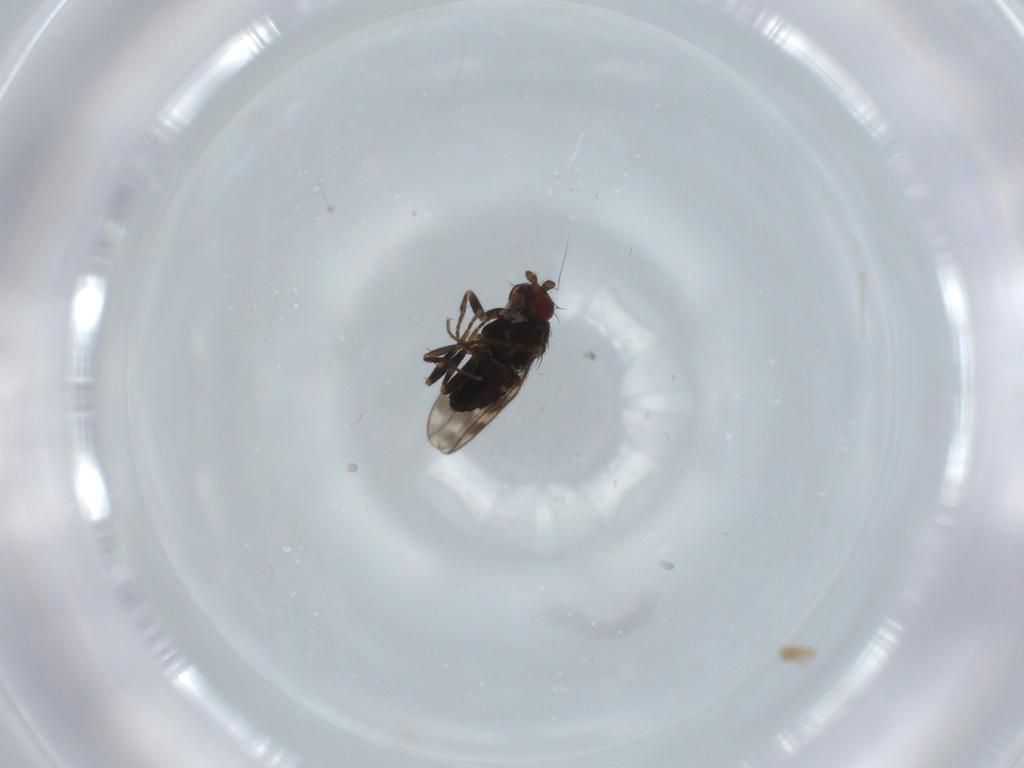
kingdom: Animalia
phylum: Arthropoda
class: Insecta
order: Diptera
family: Sphaeroceridae
